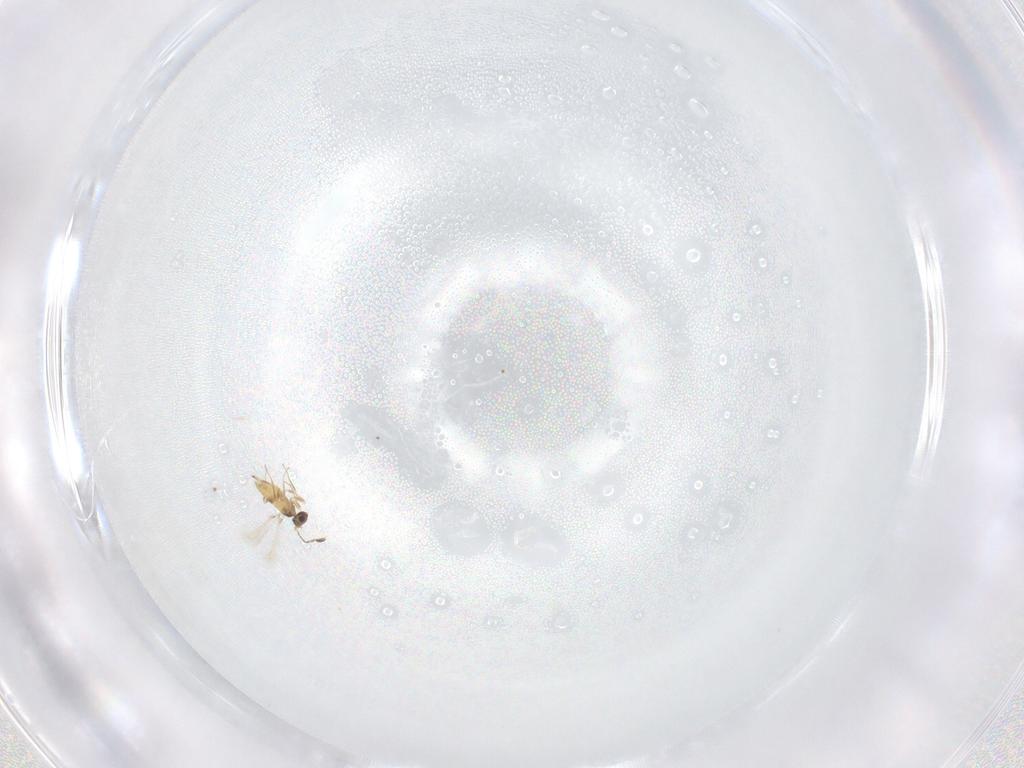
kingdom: Animalia
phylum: Arthropoda
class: Insecta
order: Hymenoptera
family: Mymaridae
